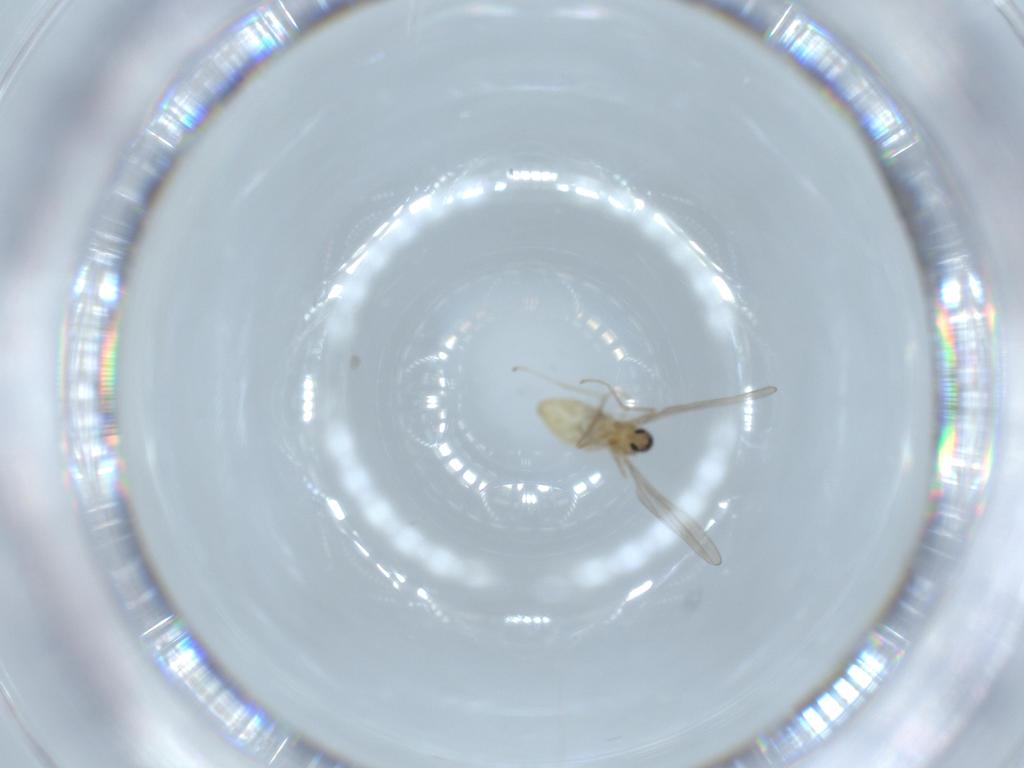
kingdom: Animalia
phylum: Arthropoda
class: Insecta
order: Diptera
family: Cecidomyiidae
